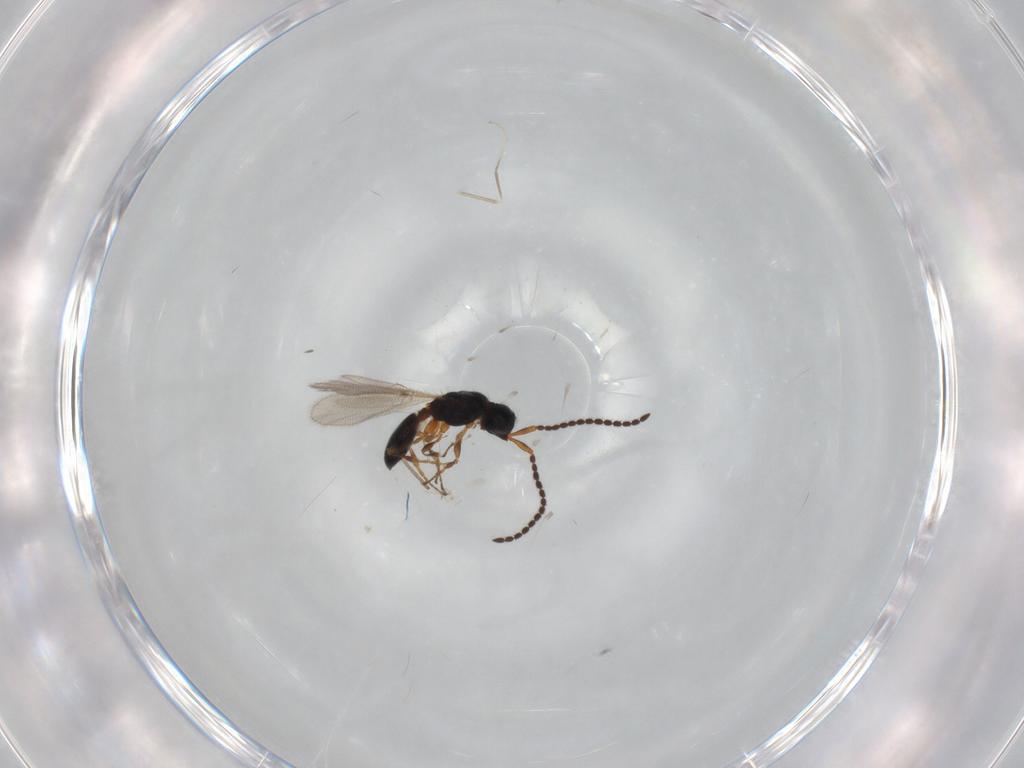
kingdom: Animalia
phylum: Arthropoda
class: Insecta
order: Hymenoptera
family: Diapriidae
